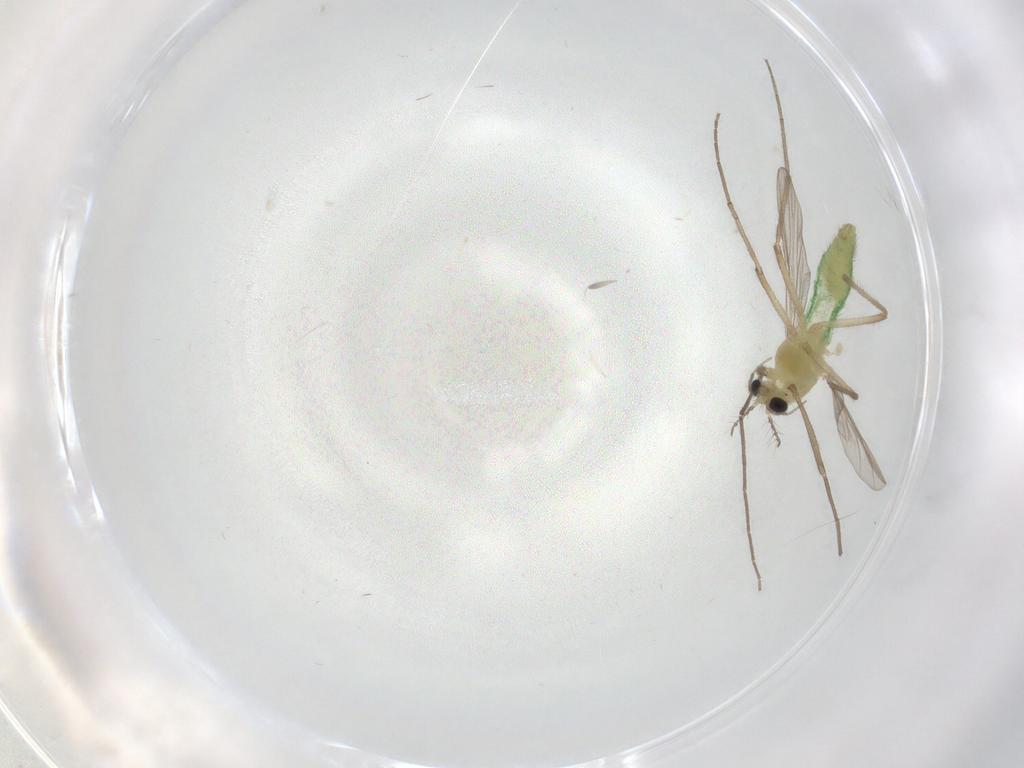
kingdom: Animalia
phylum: Arthropoda
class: Insecta
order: Diptera
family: Chironomidae
